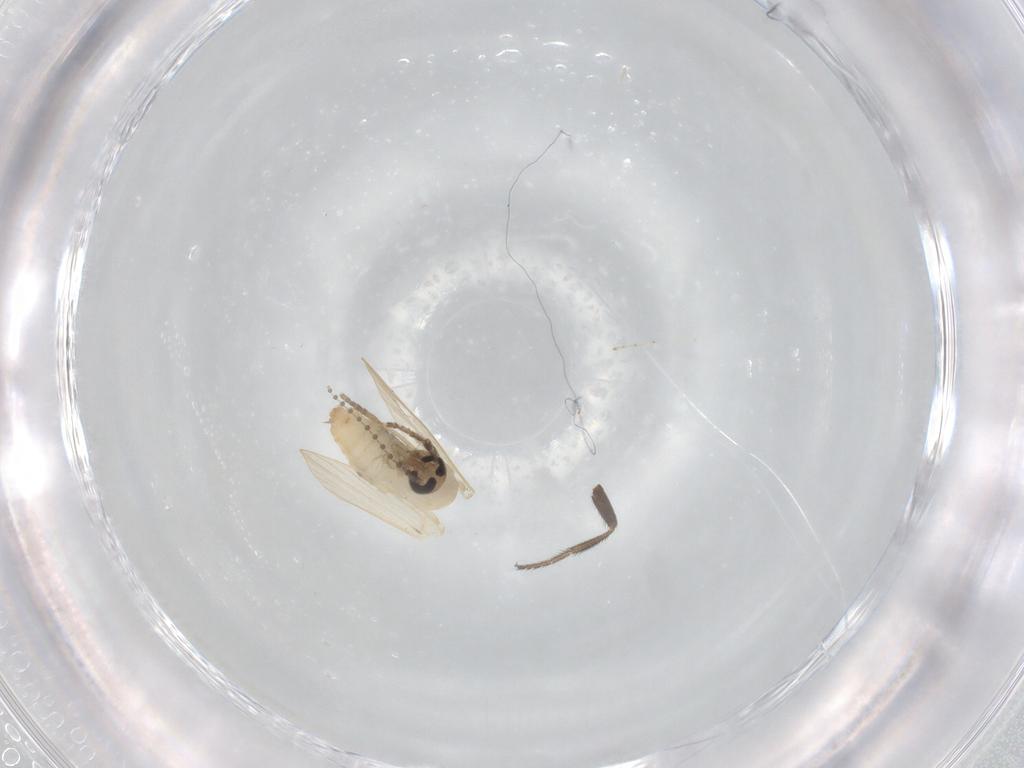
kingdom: Animalia
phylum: Arthropoda
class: Insecta
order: Diptera
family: Psychodidae
